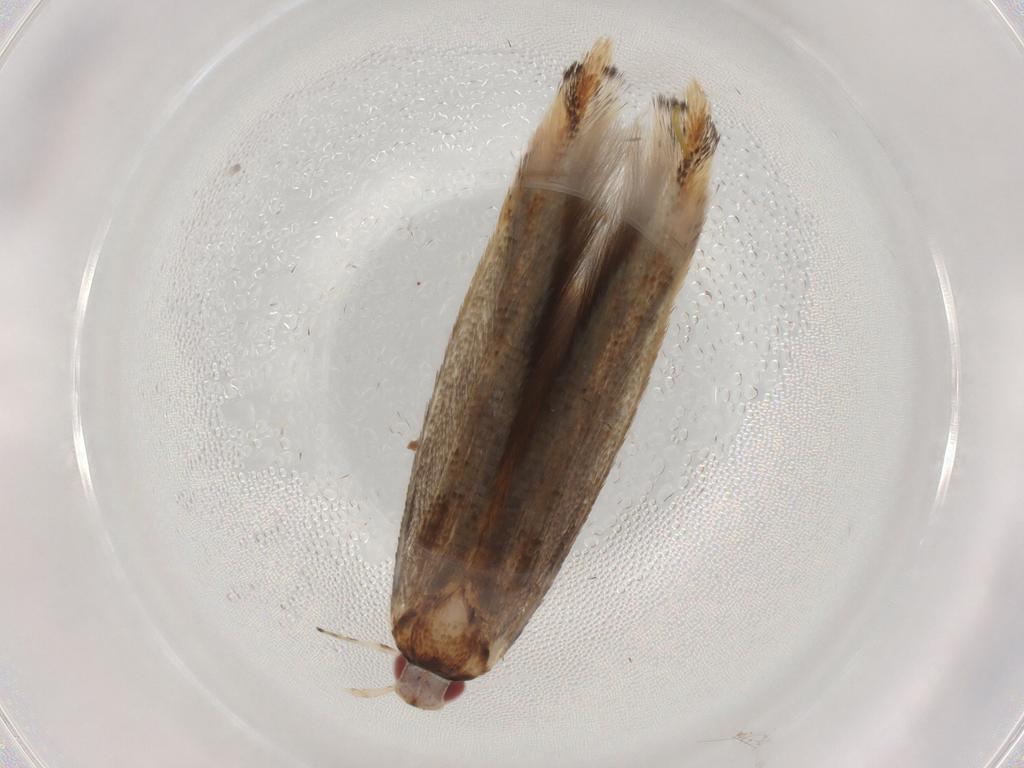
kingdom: Animalia
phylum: Arthropoda
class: Insecta
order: Lepidoptera
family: Cosmopterigidae
